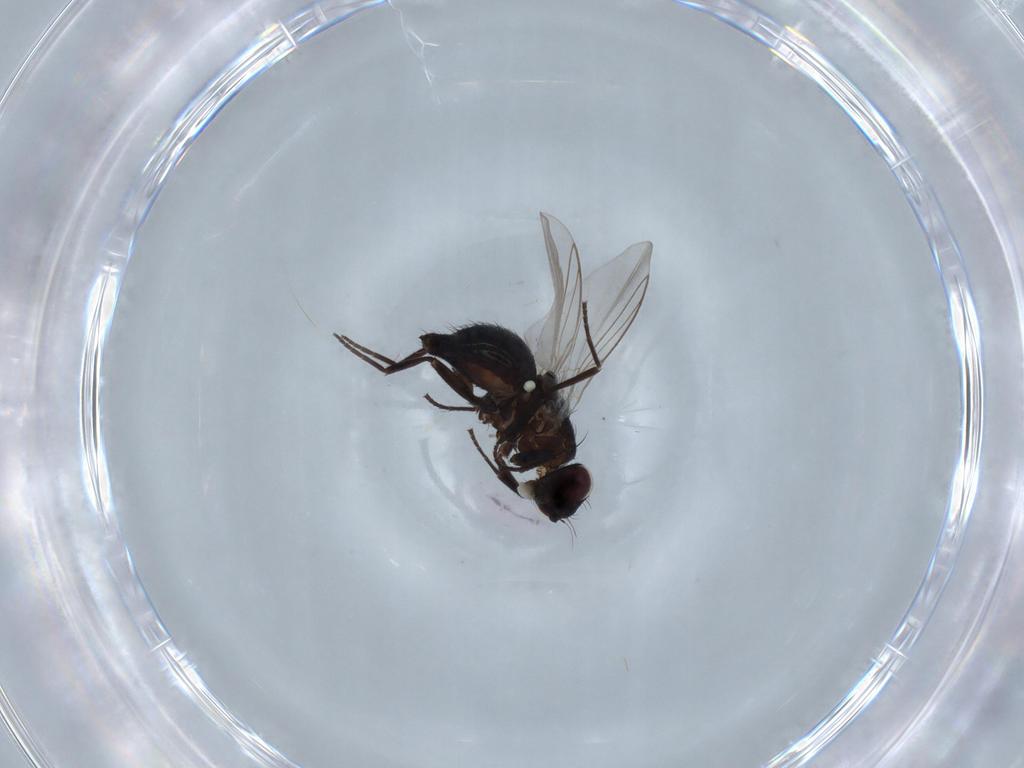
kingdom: Animalia
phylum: Arthropoda
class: Insecta
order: Diptera
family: Agromyzidae
